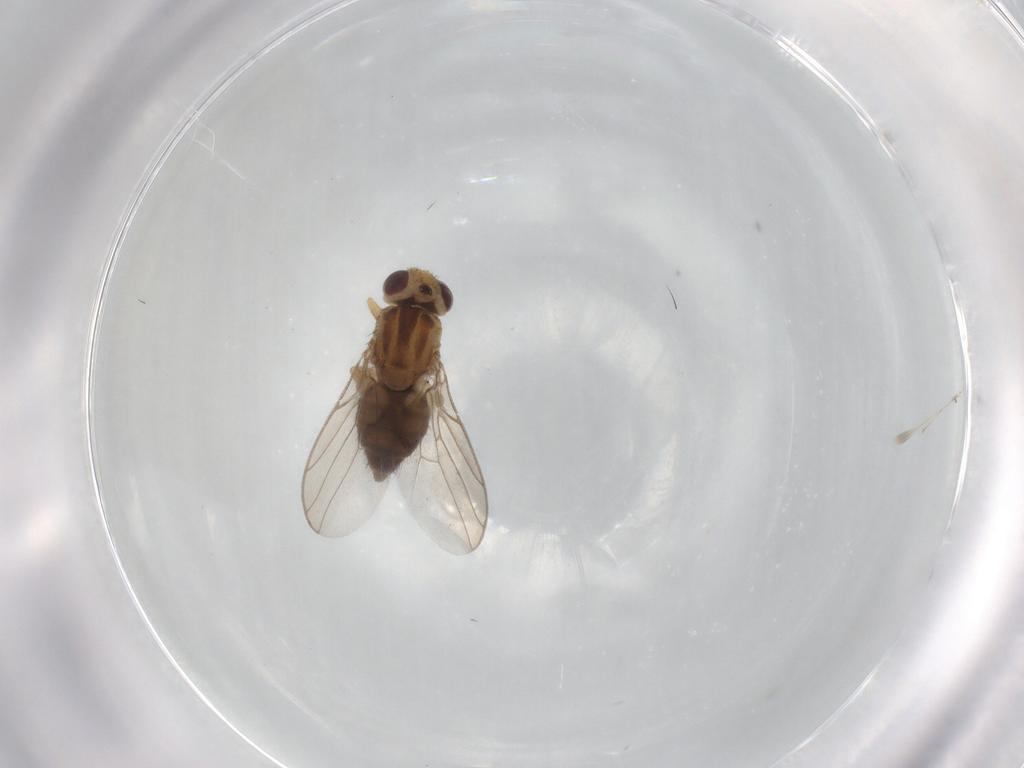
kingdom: Animalia
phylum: Arthropoda
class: Insecta
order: Diptera
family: Chloropidae
